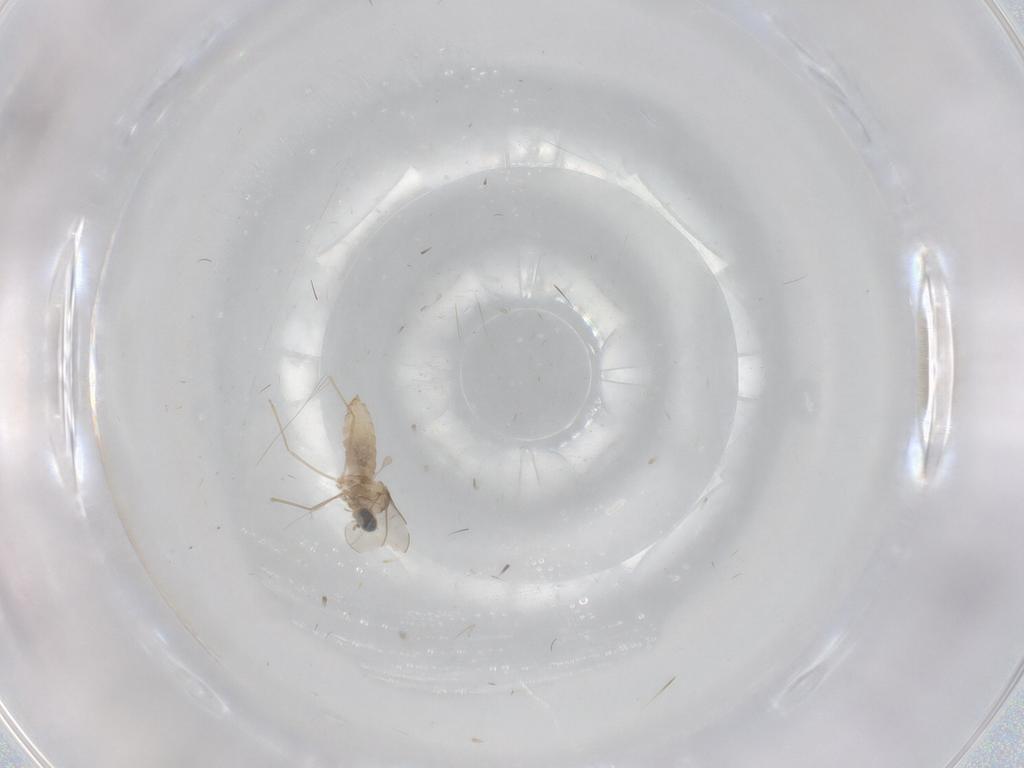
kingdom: Animalia
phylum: Arthropoda
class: Insecta
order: Diptera
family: Cecidomyiidae
